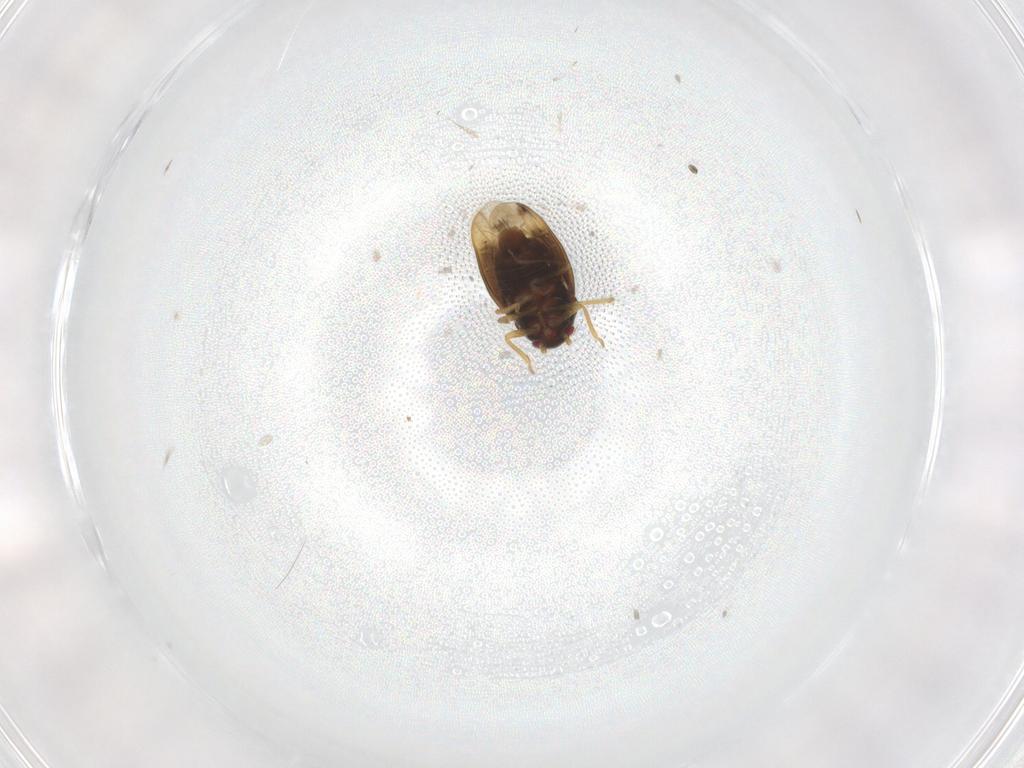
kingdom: Animalia
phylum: Arthropoda
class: Insecta
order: Hemiptera
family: Schizopteridae
